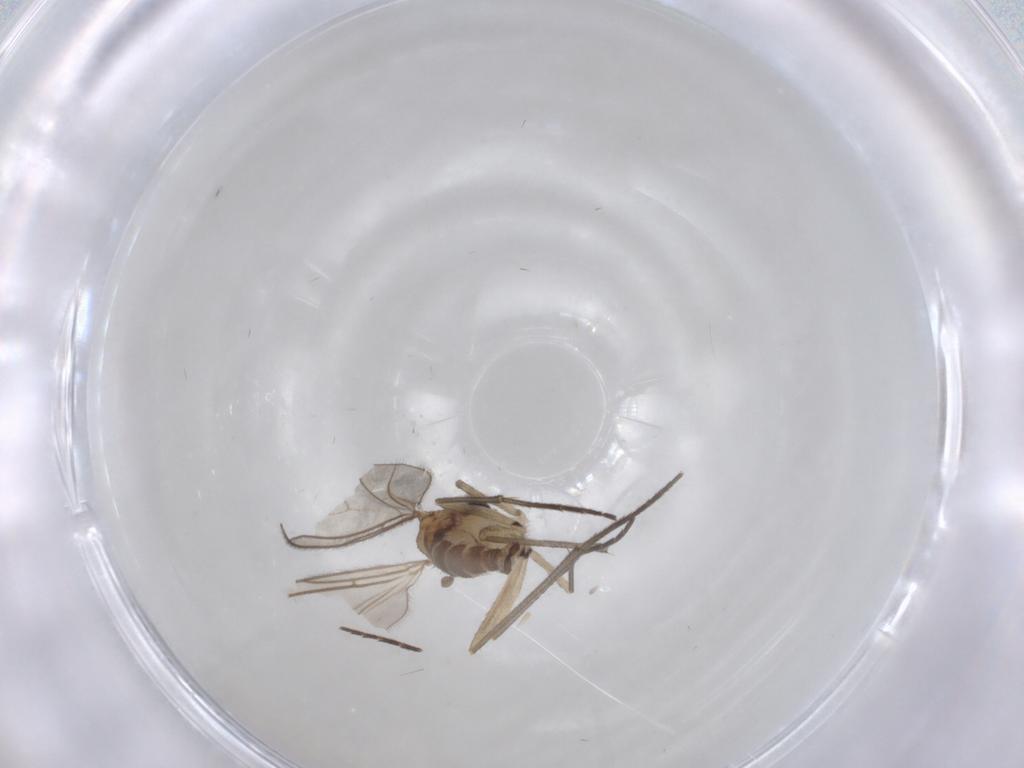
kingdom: Animalia
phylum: Arthropoda
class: Insecta
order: Diptera
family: Sciaridae
